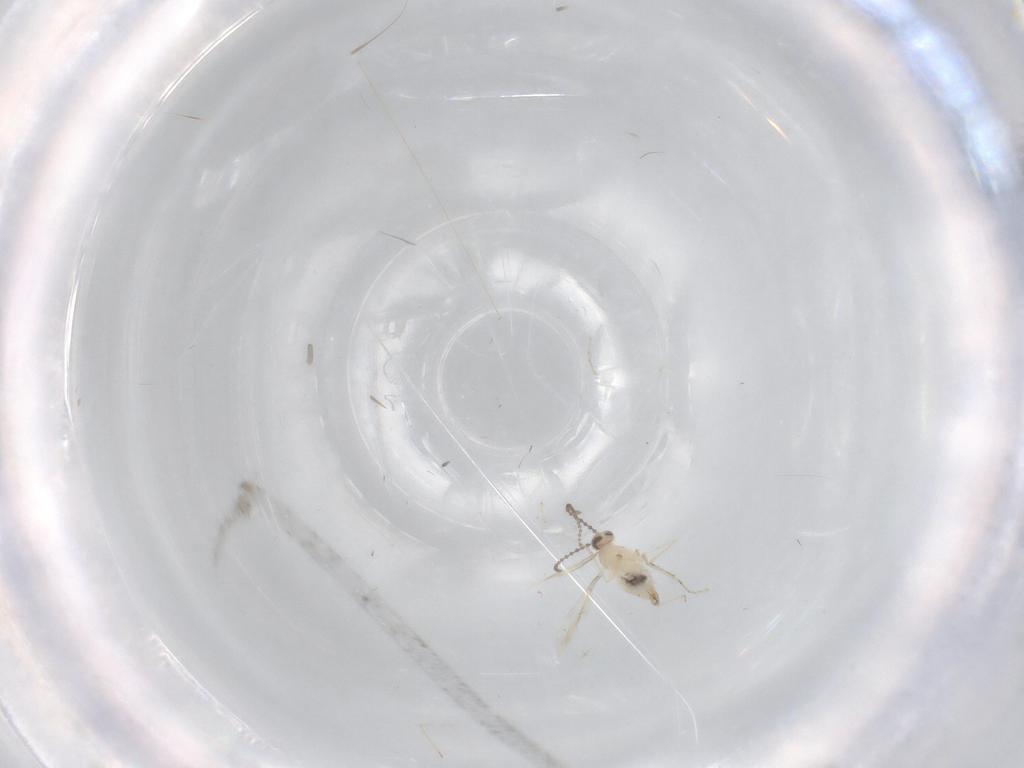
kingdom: Animalia
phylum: Arthropoda
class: Insecta
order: Diptera
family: Cecidomyiidae
